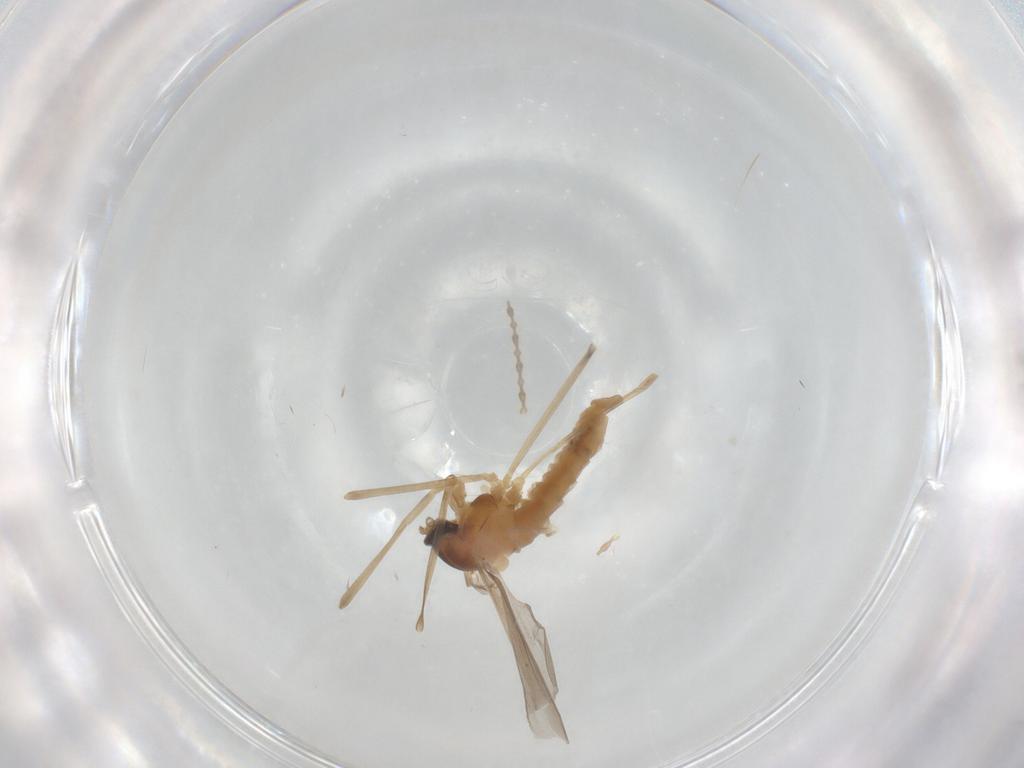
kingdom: Animalia
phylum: Arthropoda
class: Insecta
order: Diptera
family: Cecidomyiidae
